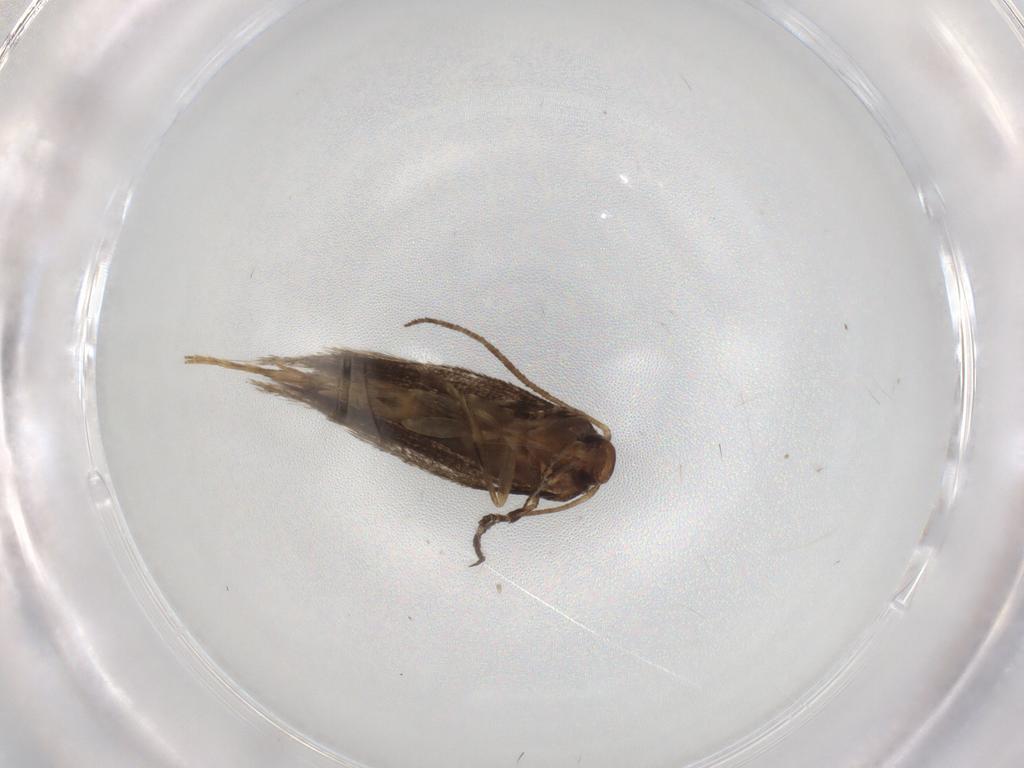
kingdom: Animalia
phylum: Arthropoda
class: Insecta
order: Lepidoptera
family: Elachistidae
